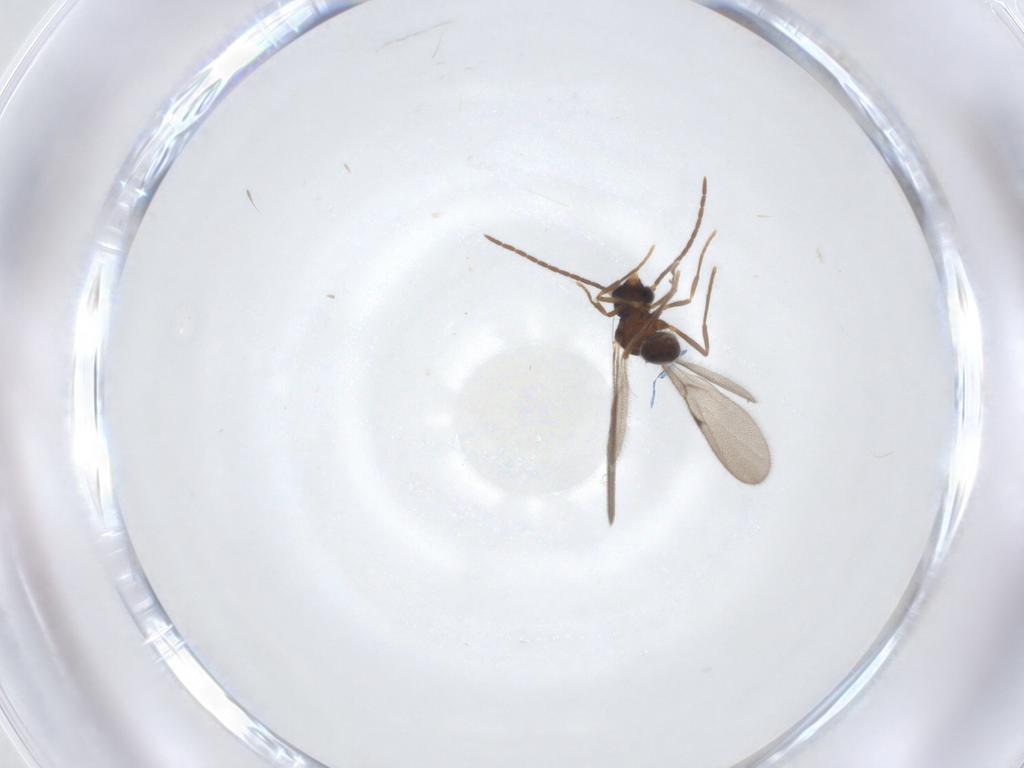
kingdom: Animalia
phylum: Arthropoda
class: Insecta
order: Hymenoptera
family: Formicidae
